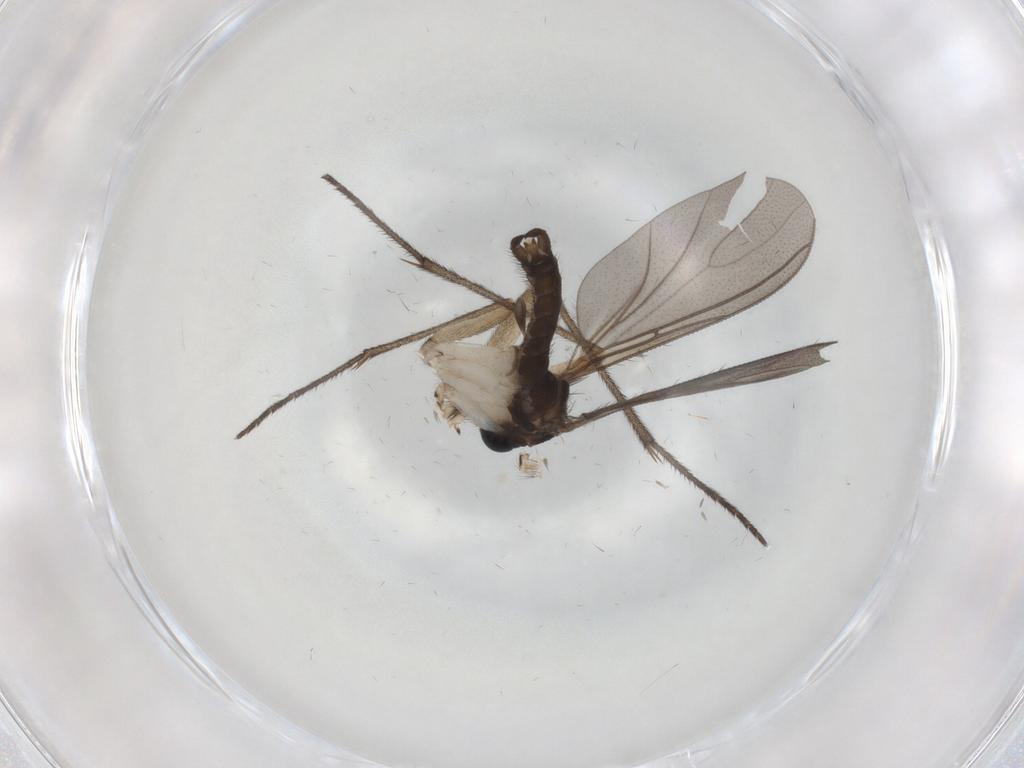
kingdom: Animalia
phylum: Arthropoda
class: Insecta
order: Diptera
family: Sciaridae
